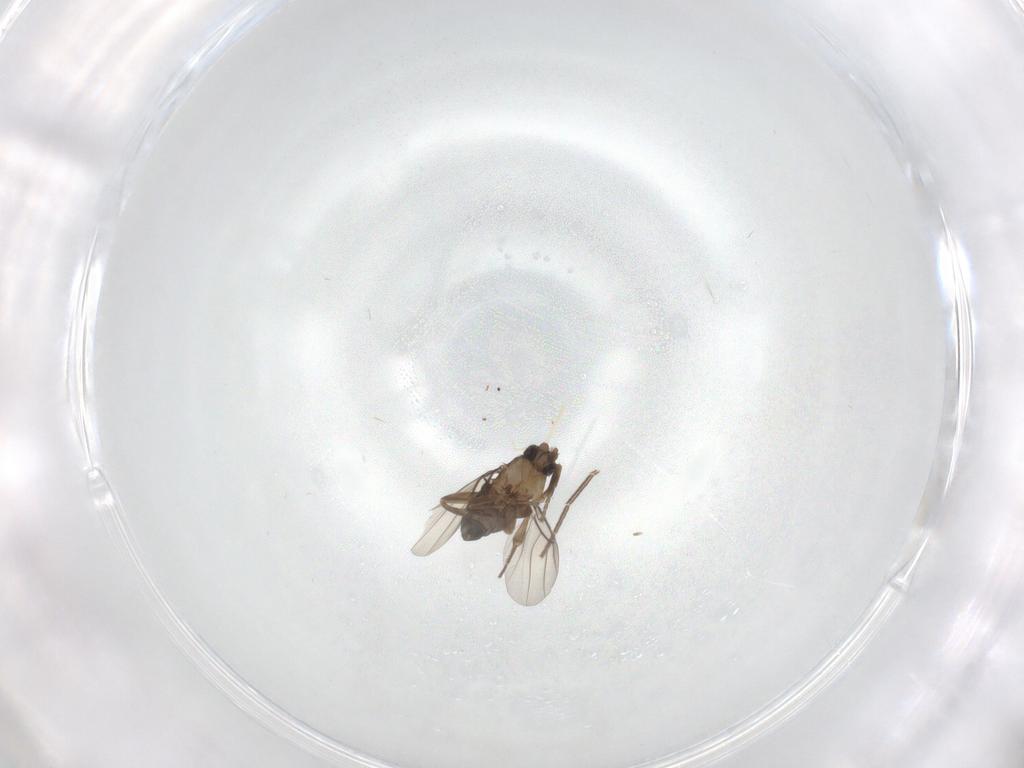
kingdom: Animalia
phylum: Arthropoda
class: Insecta
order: Diptera
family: Phoridae
